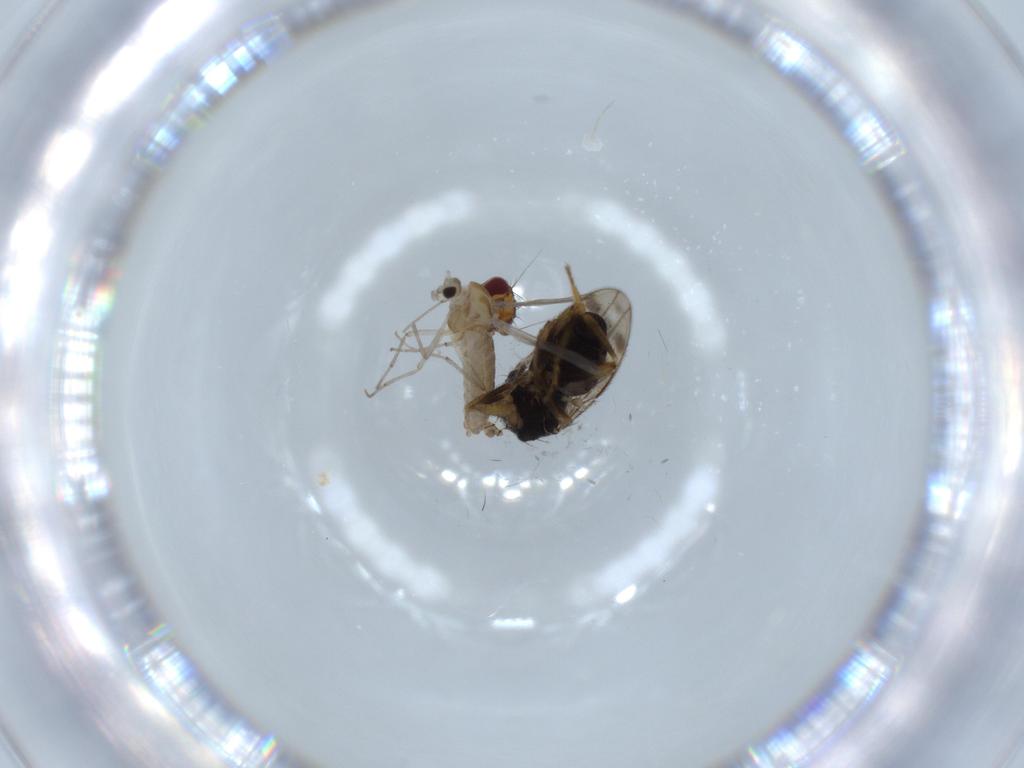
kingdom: Animalia
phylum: Arthropoda
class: Insecta
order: Diptera
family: Chironomidae
